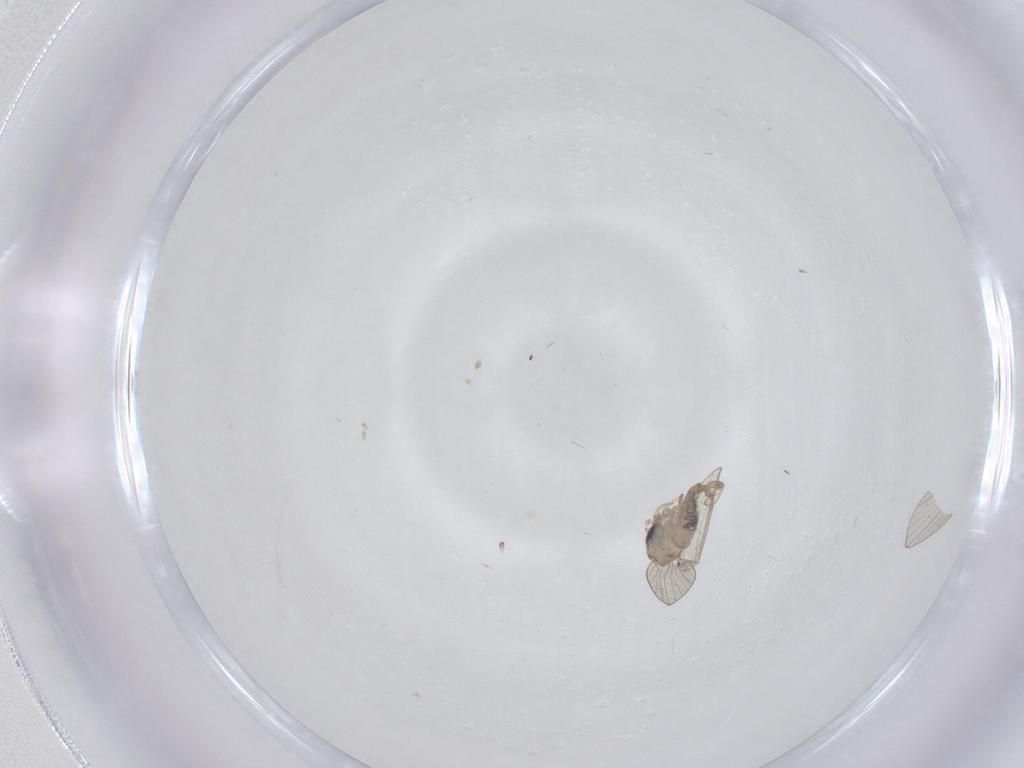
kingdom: Animalia
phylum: Arthropoda
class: Insecta
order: Diptera
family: Psychodidae
